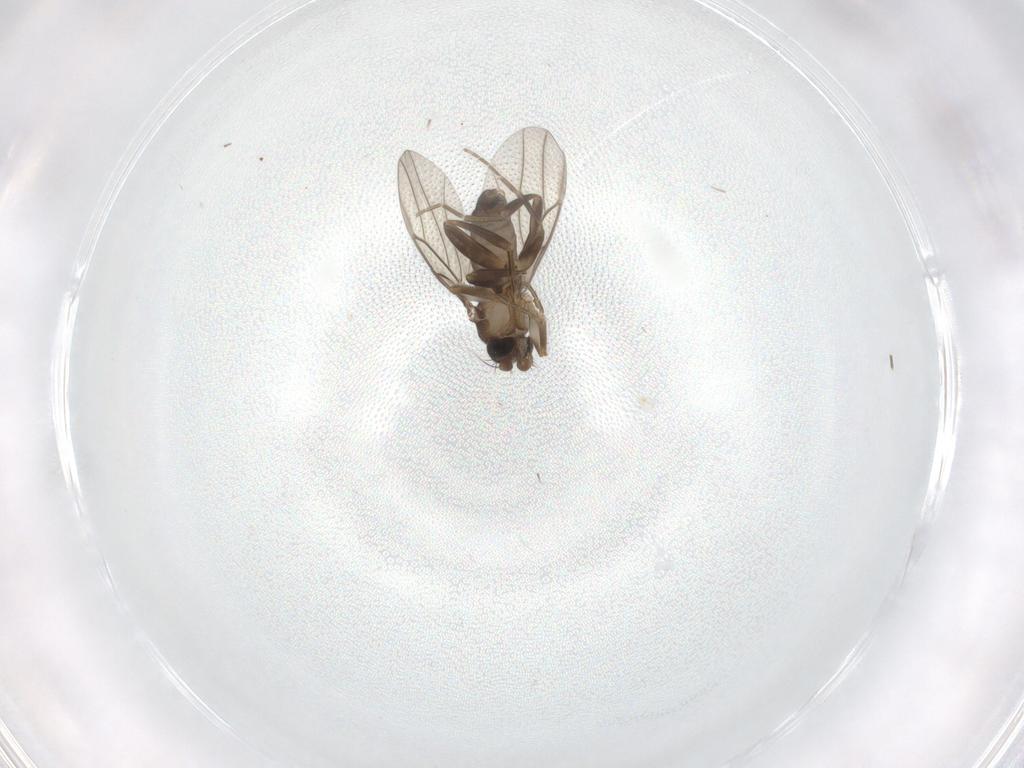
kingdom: Animalia
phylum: Arthropoda
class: Insecta
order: Diptera
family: Phoridae
